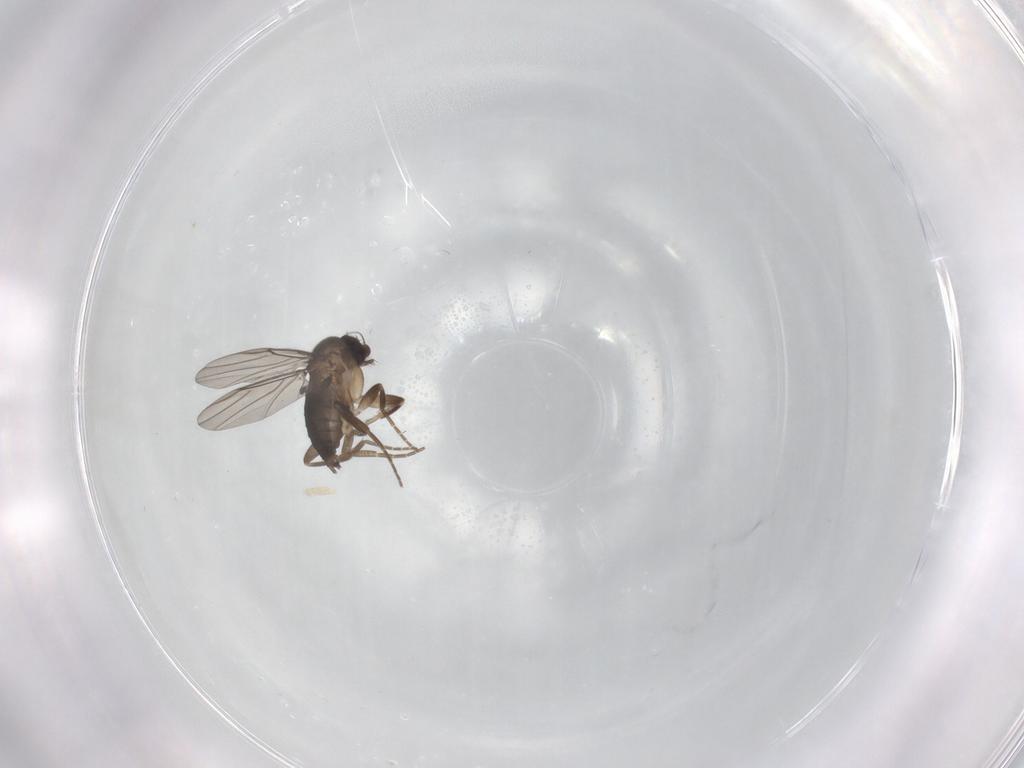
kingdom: Animalia
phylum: Arthropoda
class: Insecta
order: Diptera
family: Phoridae
